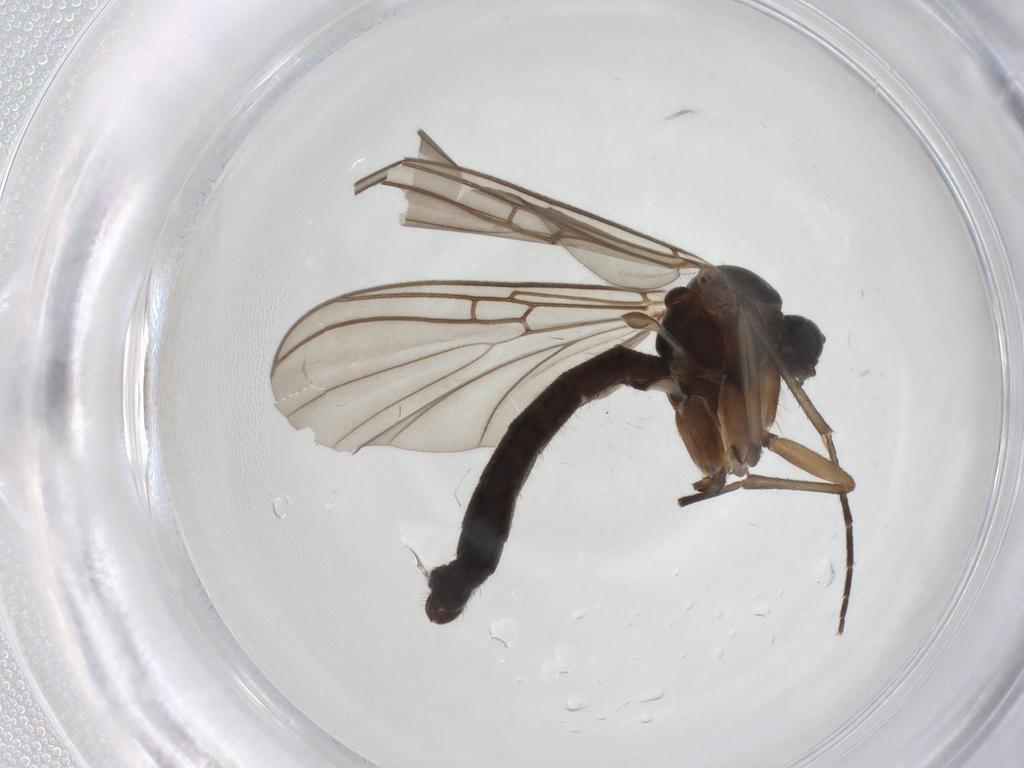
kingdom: Animalia
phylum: Arthropoda
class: Insecta
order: Diptera
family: Mycetophilidae
